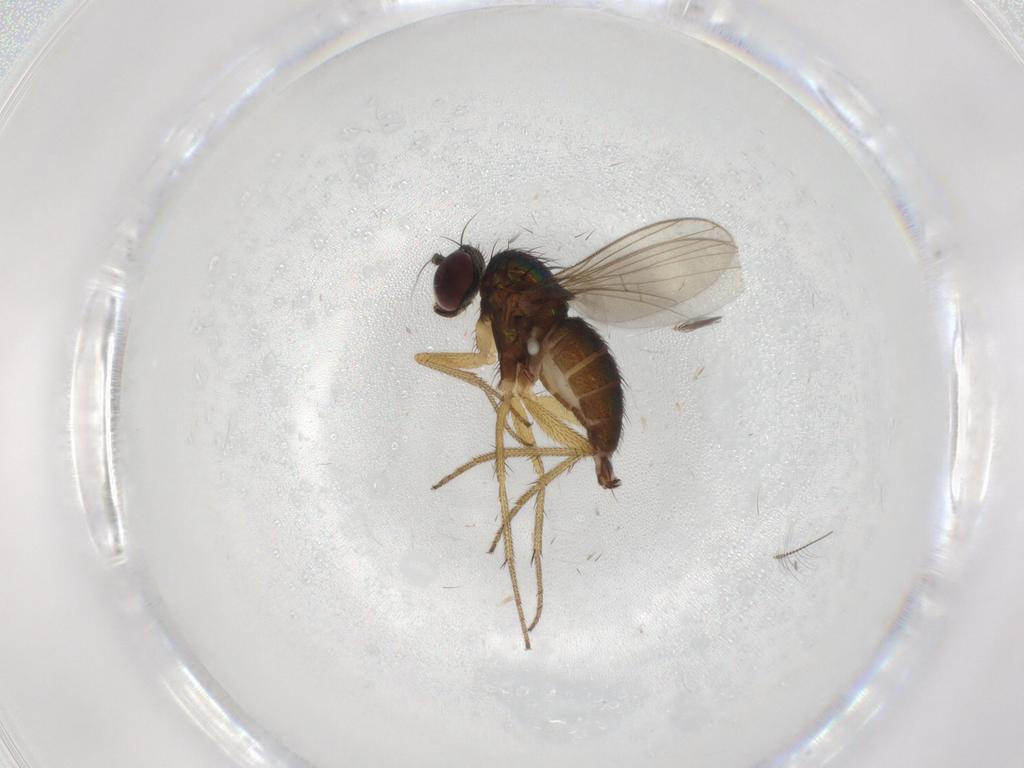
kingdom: Animalia
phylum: Arthropoda
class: Insecta
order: Diptera
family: Chironomidae
